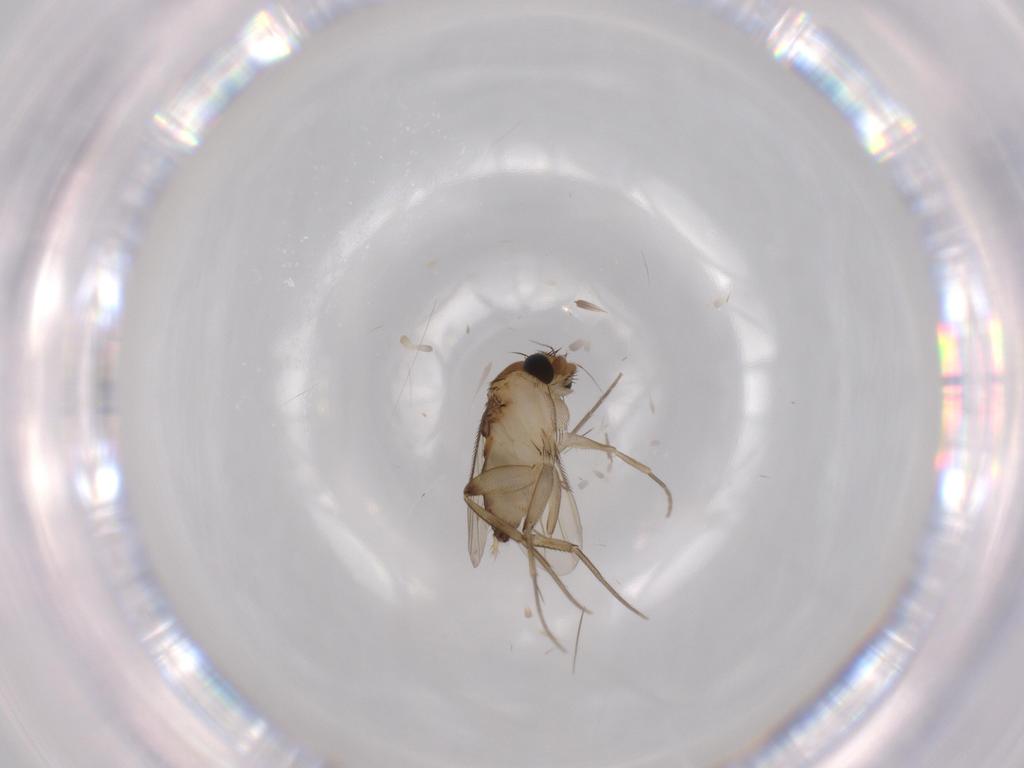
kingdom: Animalia
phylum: Arthropoda
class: Insecta
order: Diptera
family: Phoridae
